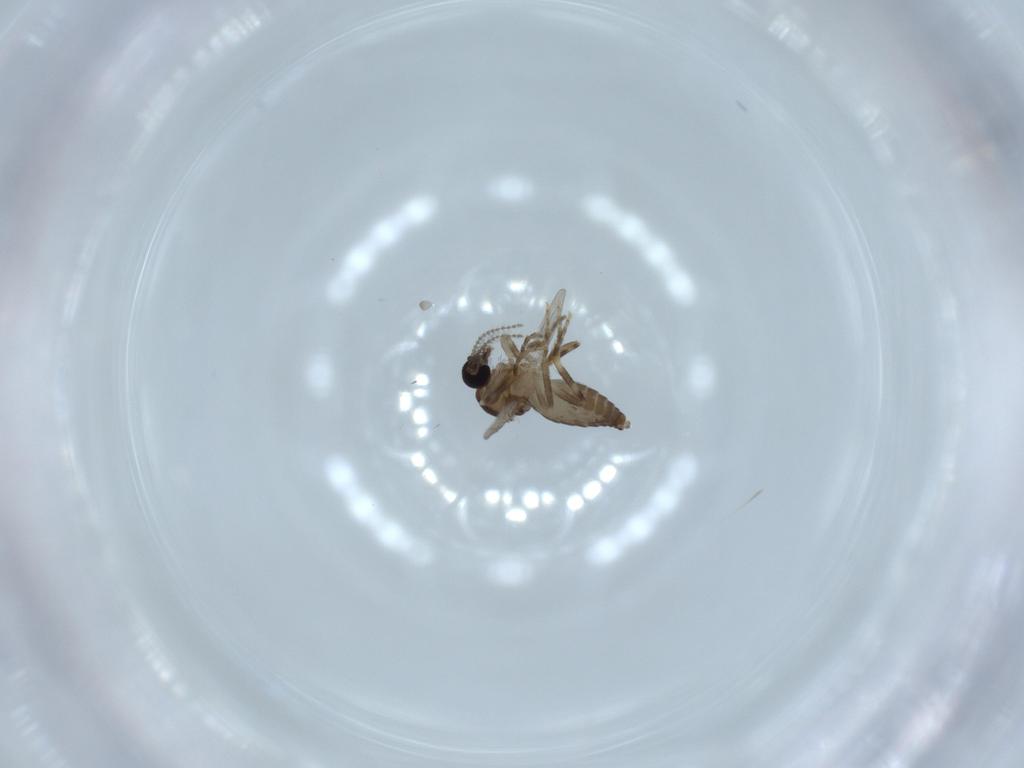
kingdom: Animalia
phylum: Arthropoda
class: Insecta
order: Diptera
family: Ceratopogonidae
